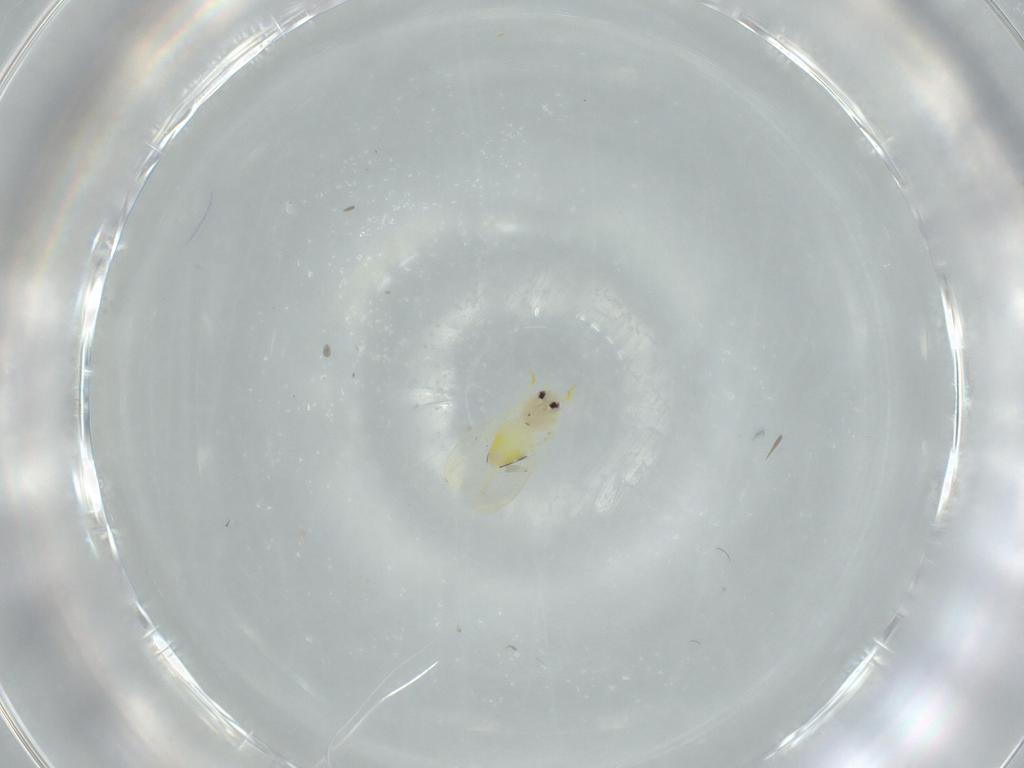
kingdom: Animalia
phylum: Arthropoda
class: Insecta
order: Hemiptera
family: Aleyrodidae
